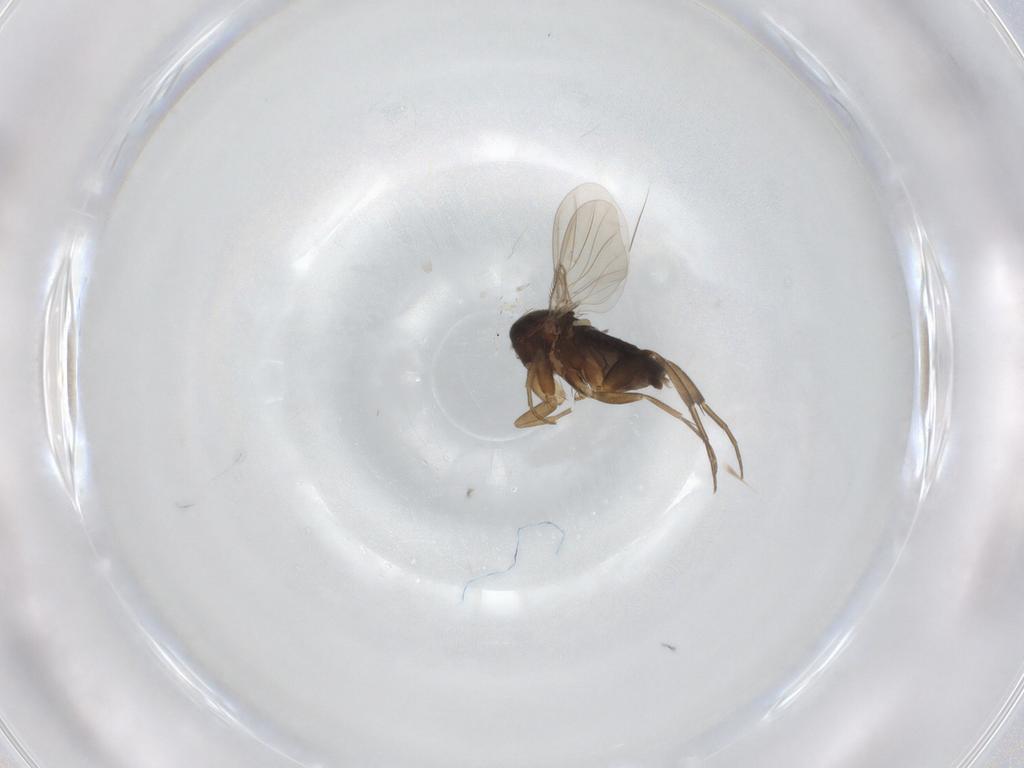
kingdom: Animalia
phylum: Arthropoda
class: Insecta
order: Diptera
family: Phoridae
